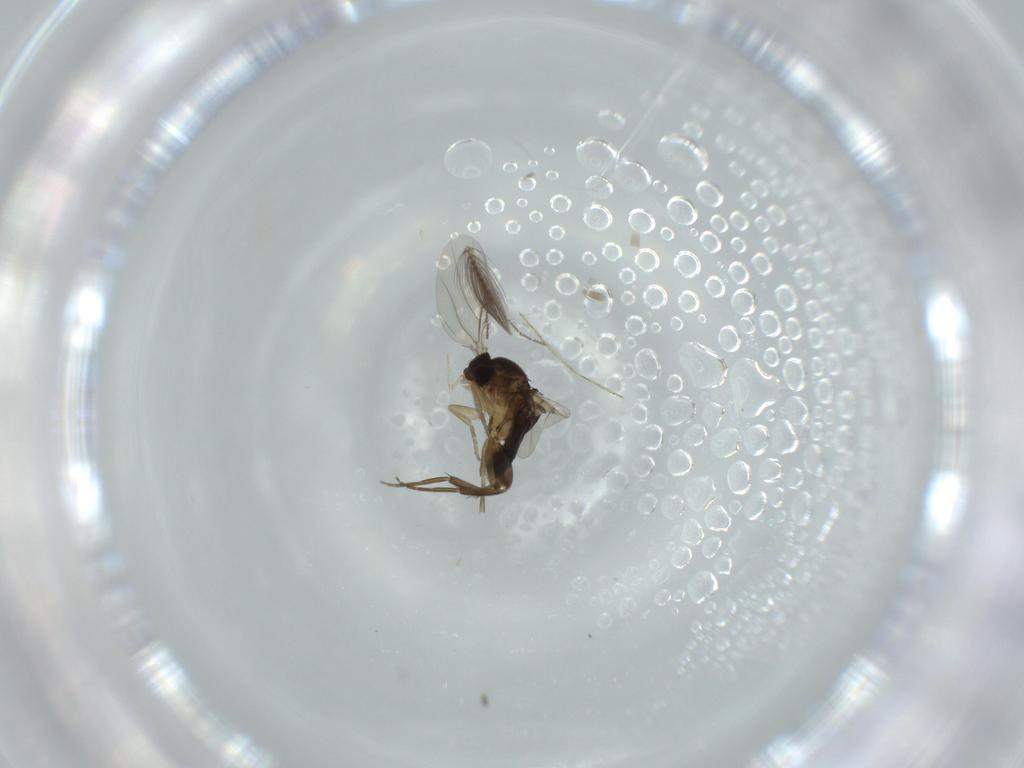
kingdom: Animalia
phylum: Arthropoda
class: Insecta
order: Diptera
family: Phoridae
